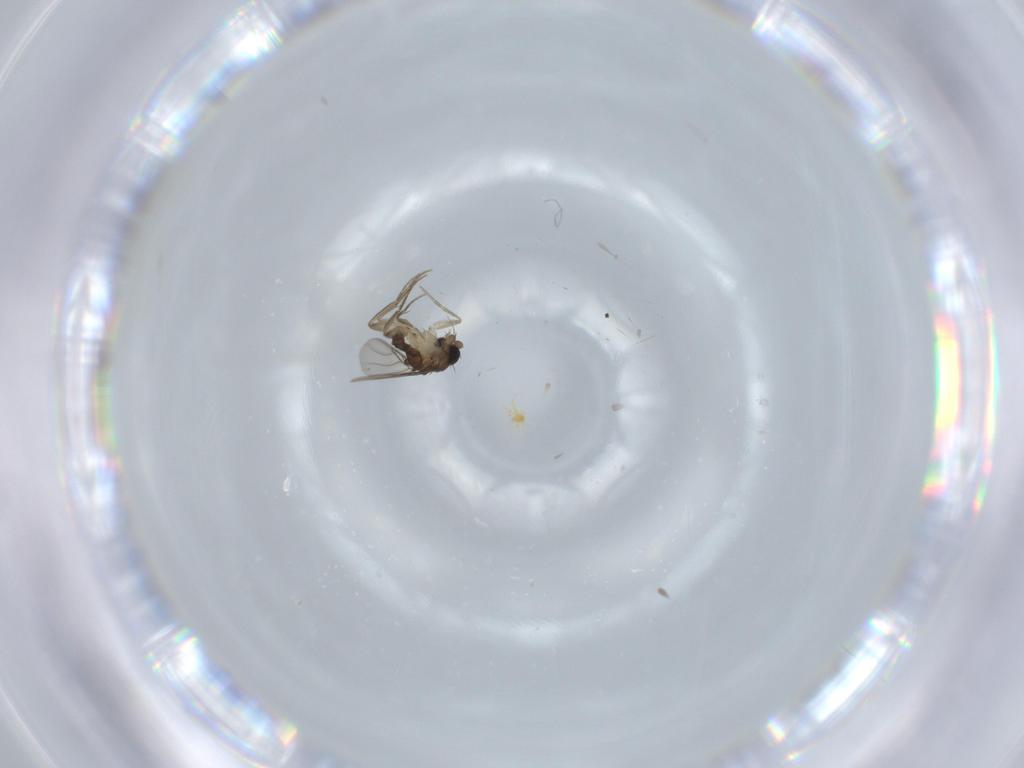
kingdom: Animalia
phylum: Arthropoda
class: Insecta
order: Diptera
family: Phoridae
